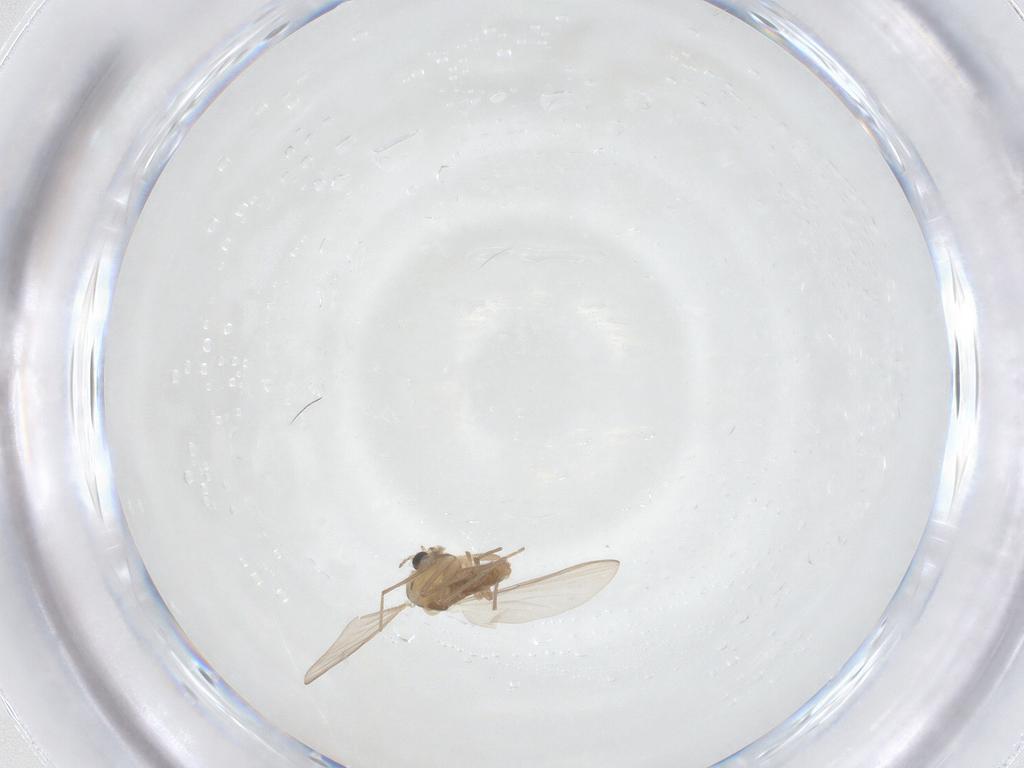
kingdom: Animalia
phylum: Arthropoda
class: Insecta
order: Diptera
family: Chironomidae
